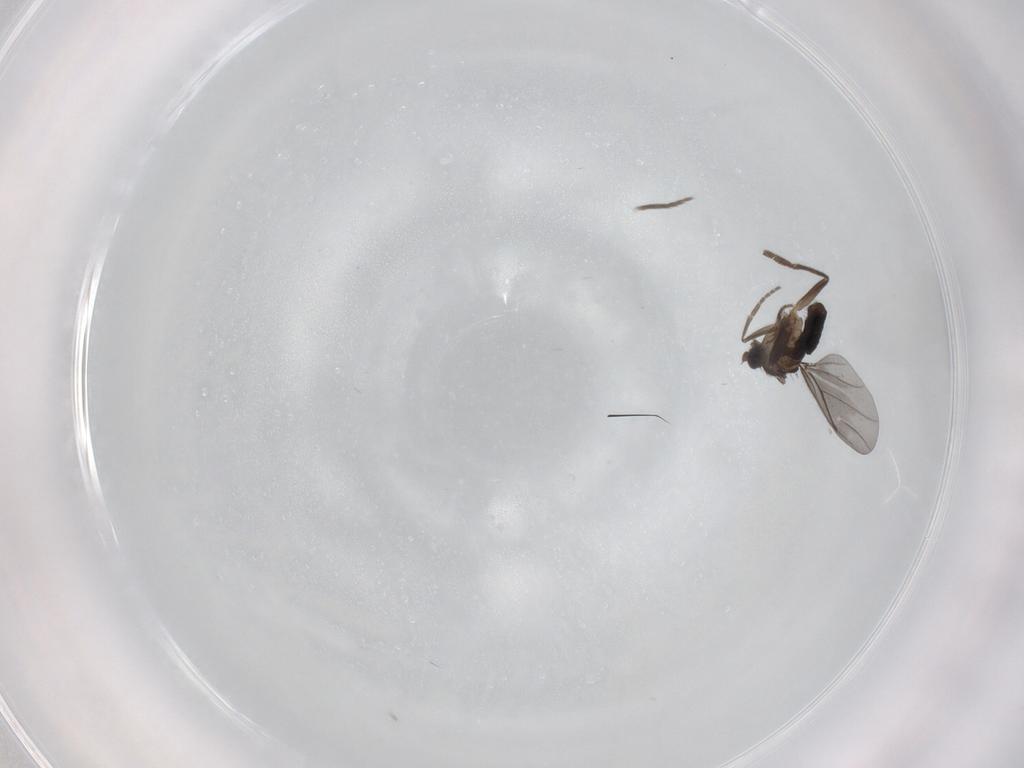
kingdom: Animalia
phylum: Arthropoda
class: Insecta
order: Diptera
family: Phoridae
